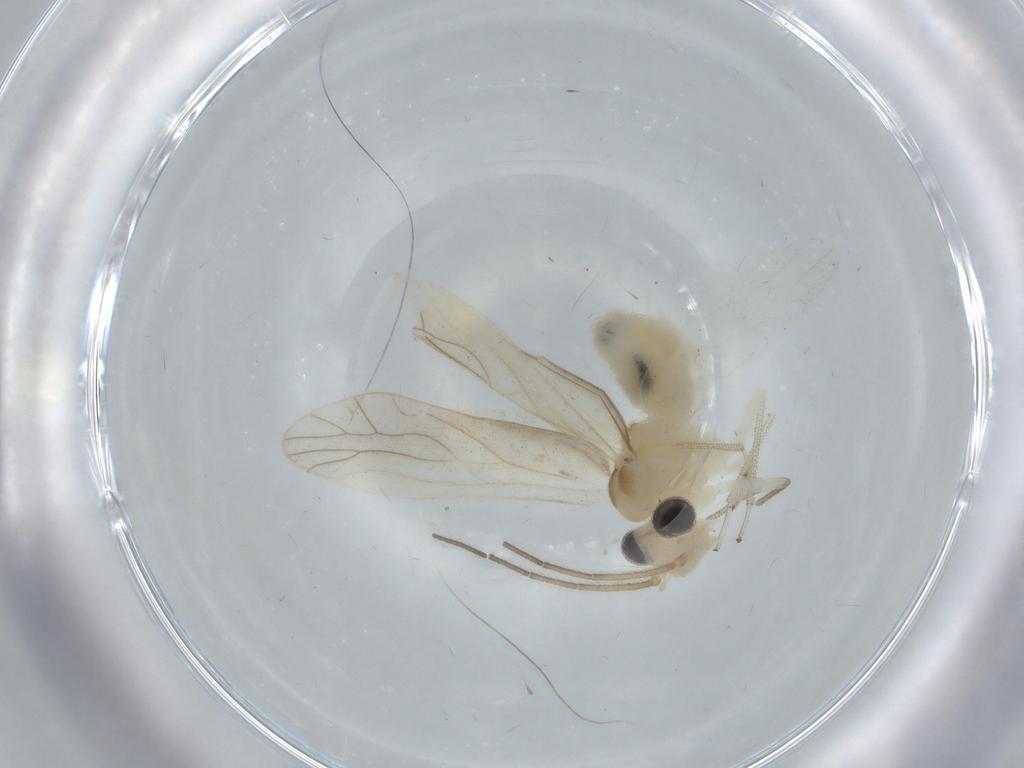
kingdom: Animalia
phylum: Arthropoda
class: Insecta
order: Psocodea
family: Caeciliusidae
